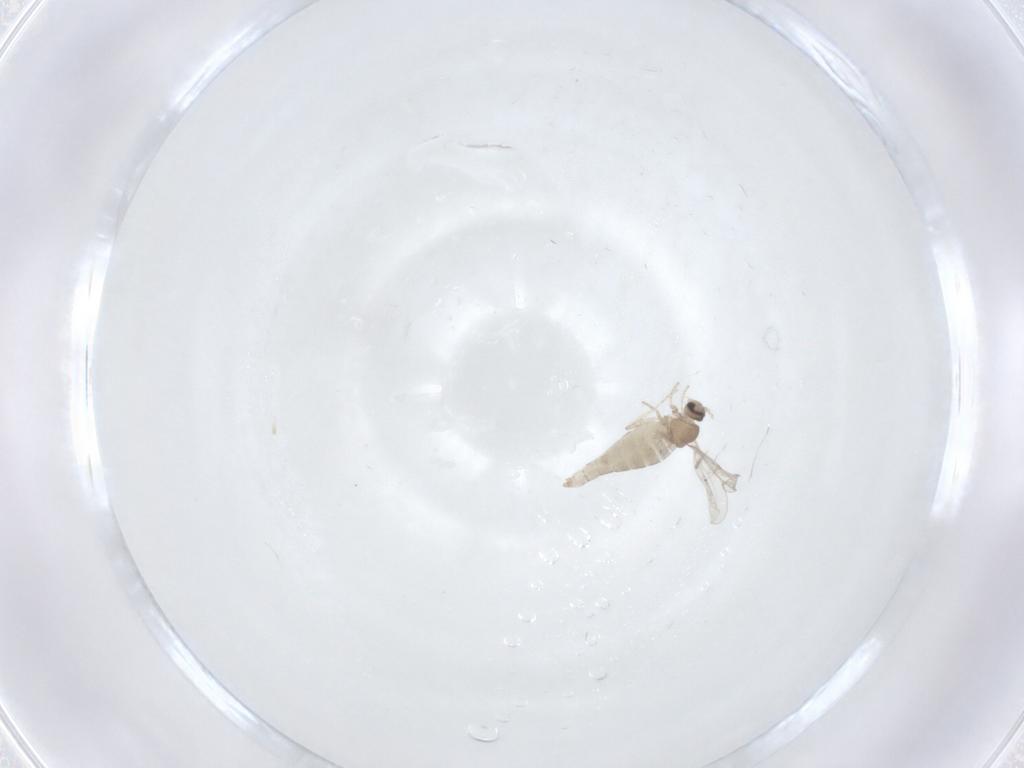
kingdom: Animalia
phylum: Arthropoda
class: Insecta
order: Diptera
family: Cecidomyiidae
